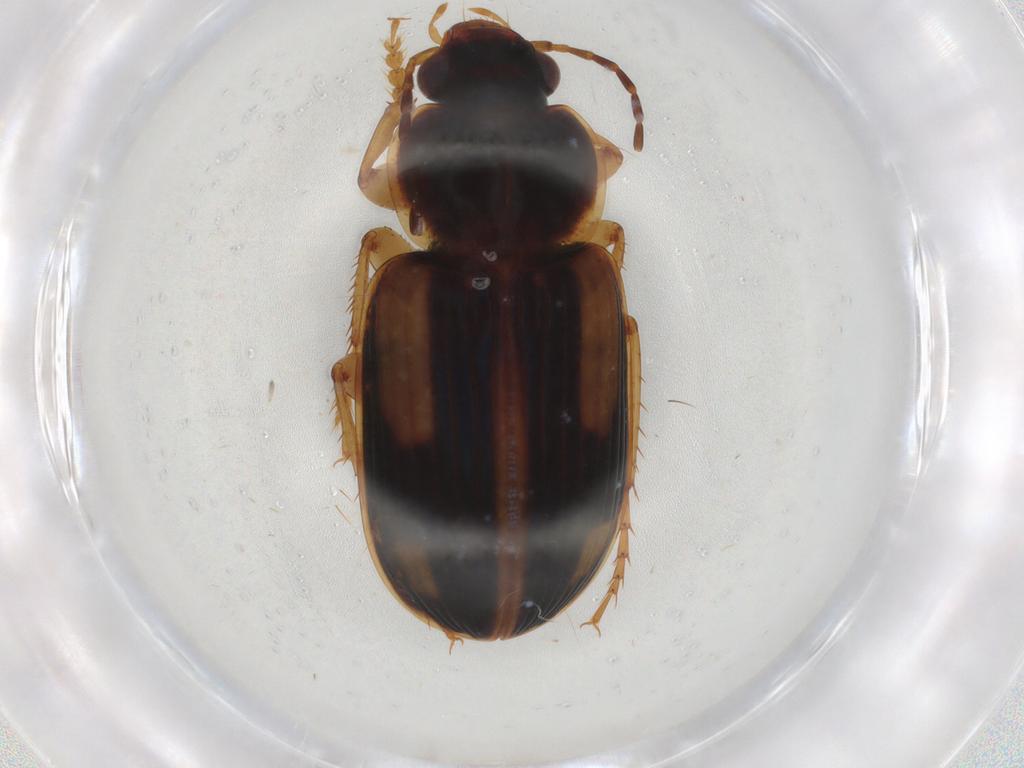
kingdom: Animalia
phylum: Arthropoda
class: Insecta
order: Coleoptera
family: Carabidae
